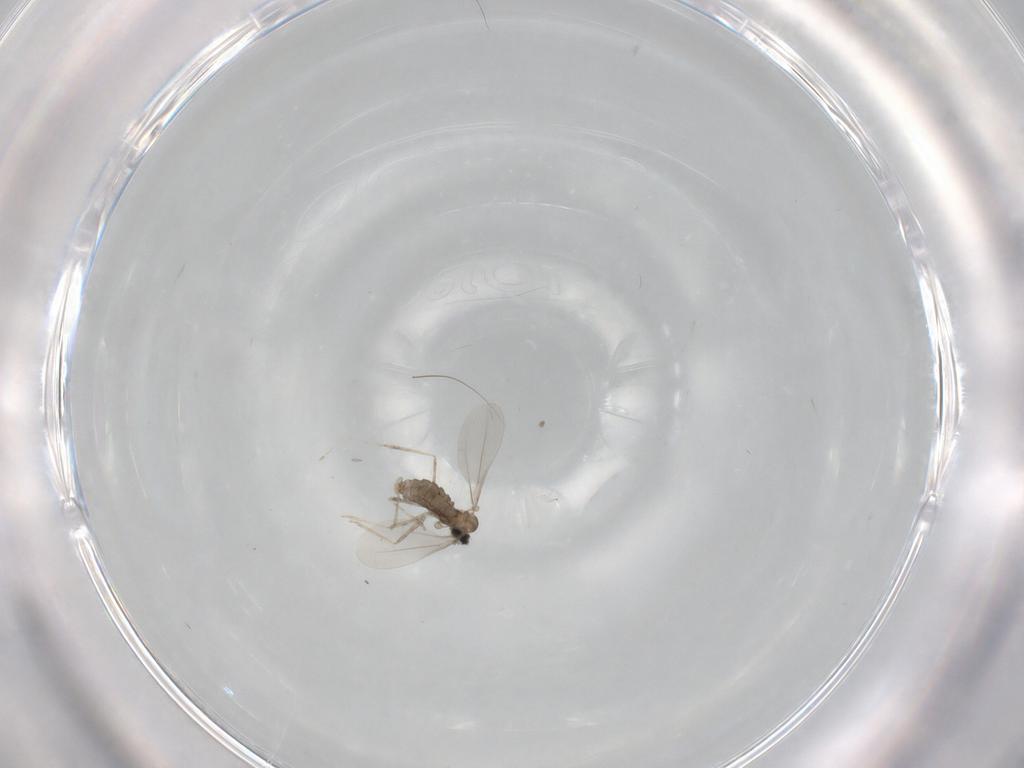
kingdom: Animalia
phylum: Arthropoda
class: Insecta
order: Diptera
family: Cecidomyiidae
